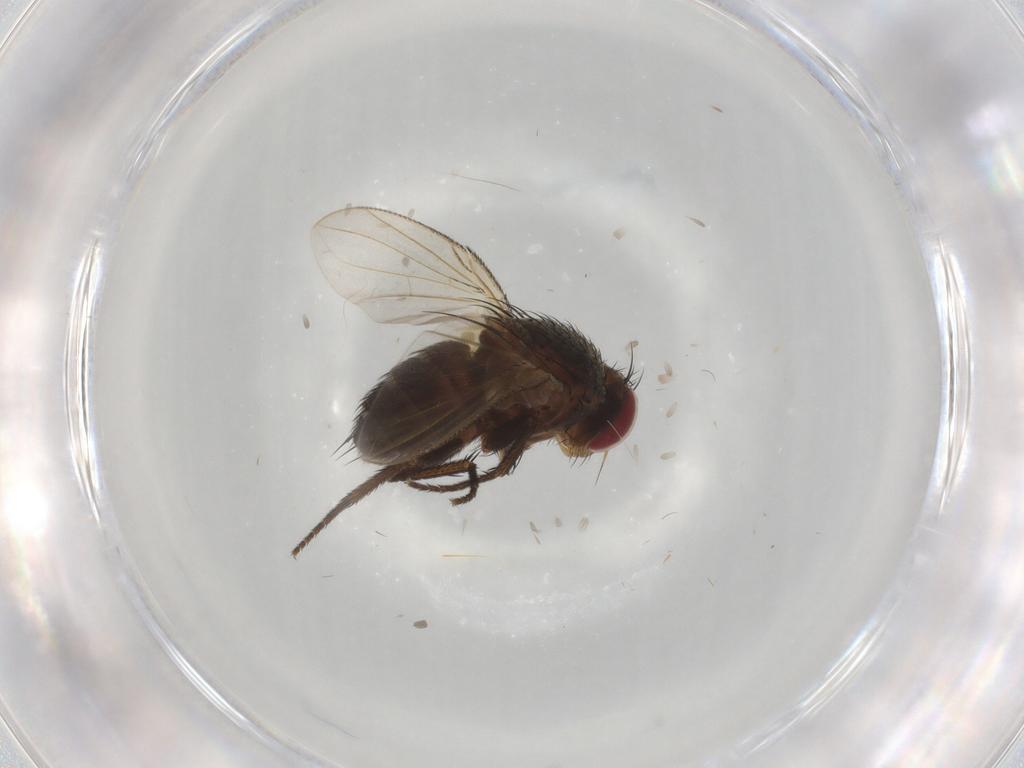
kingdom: Animalia
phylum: Arthropoda
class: Insecta
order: Diptera
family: Tachinidae
